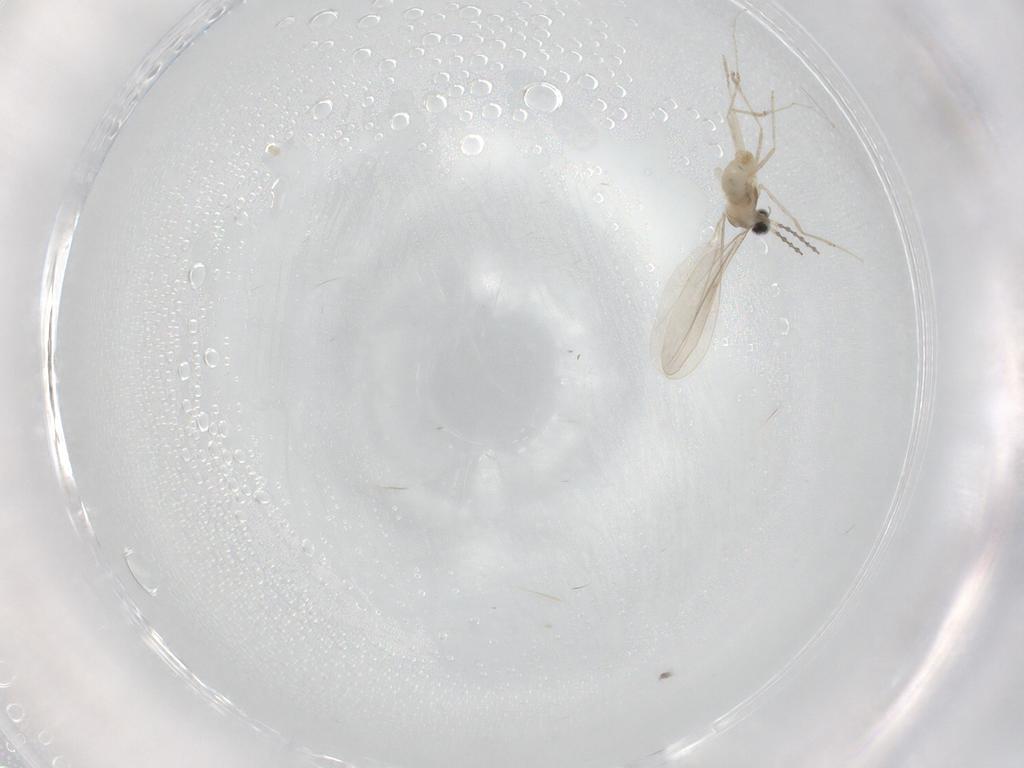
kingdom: Animalia
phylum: Arthropoda
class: Insecta
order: Diptera
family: Cecidomyiidae
